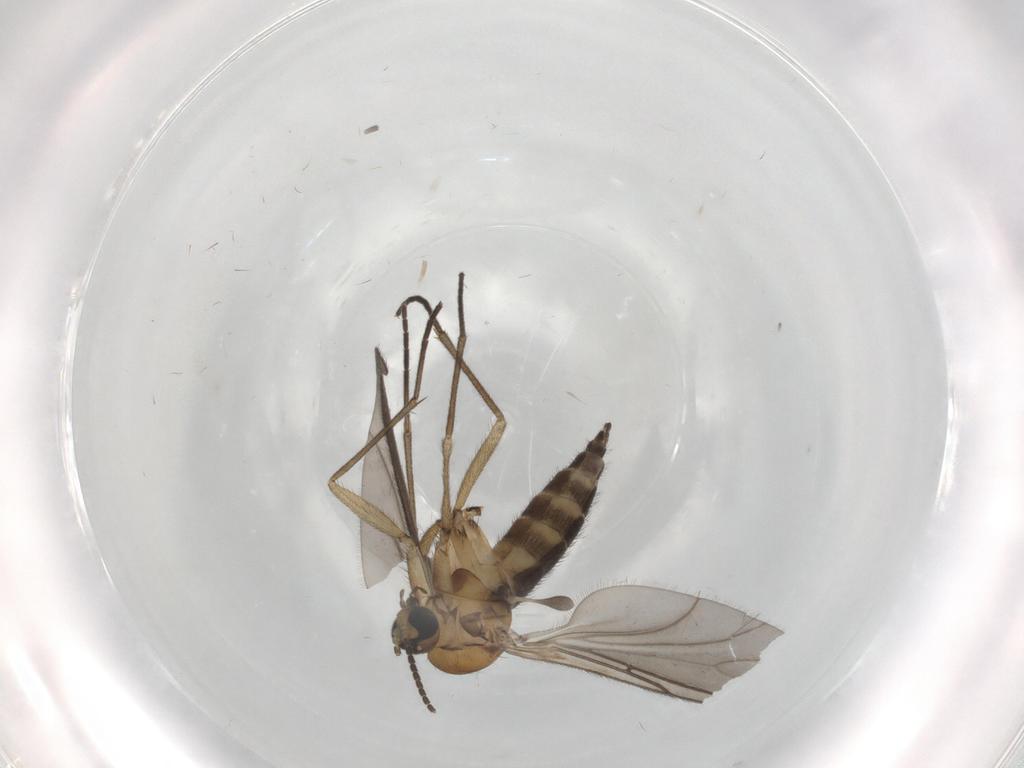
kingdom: Animalia
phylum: Arthropoda
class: Insecta
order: Diptera
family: Sciaridae
